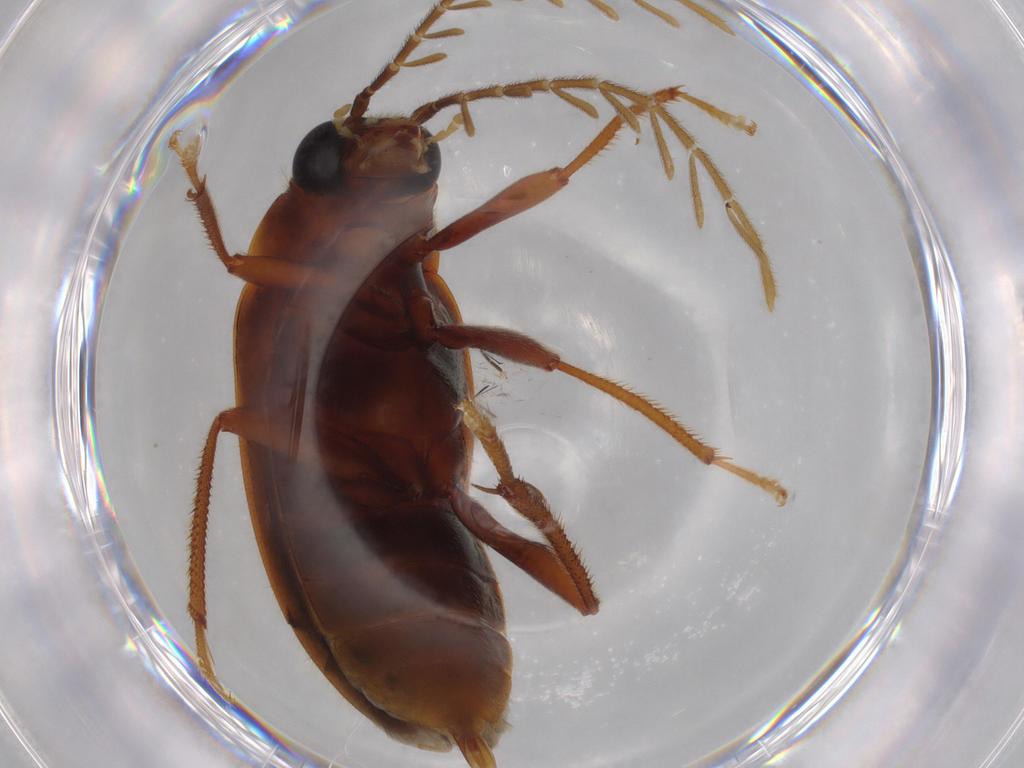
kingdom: Animalia
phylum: Arthropoda
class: Insecta
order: Coleoptera
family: Ptilodactylidae
